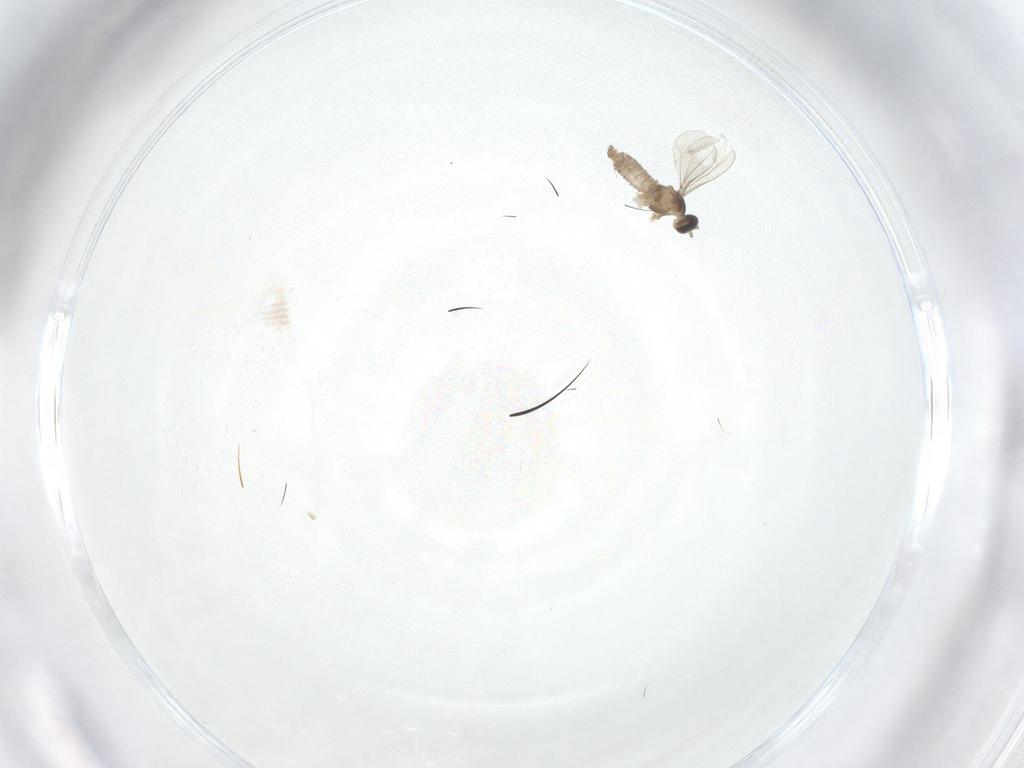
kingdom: Animalia
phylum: Arthropoda
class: Insecta
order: Diptera
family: Cecidomyiidae
